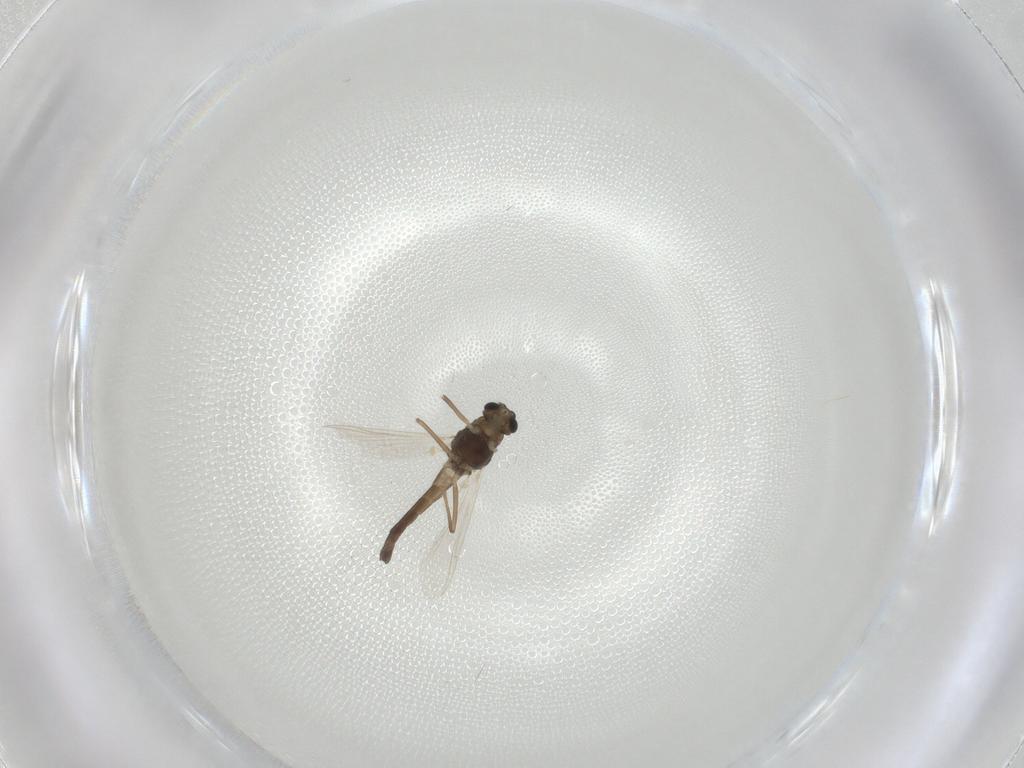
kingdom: Animalia
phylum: Arthropoda
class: Insecta
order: Diptera
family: Chironomidae
